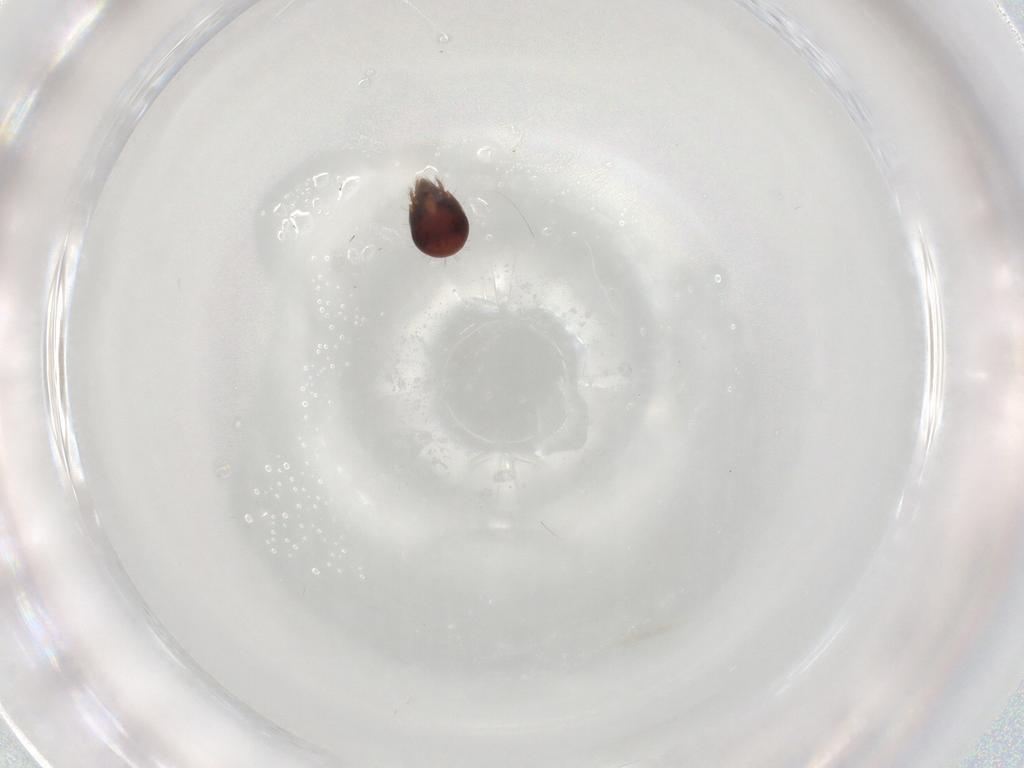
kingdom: Animalia
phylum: Arthropoda
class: Arachnida
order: Sarcoptiformes
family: Humerobatidae
